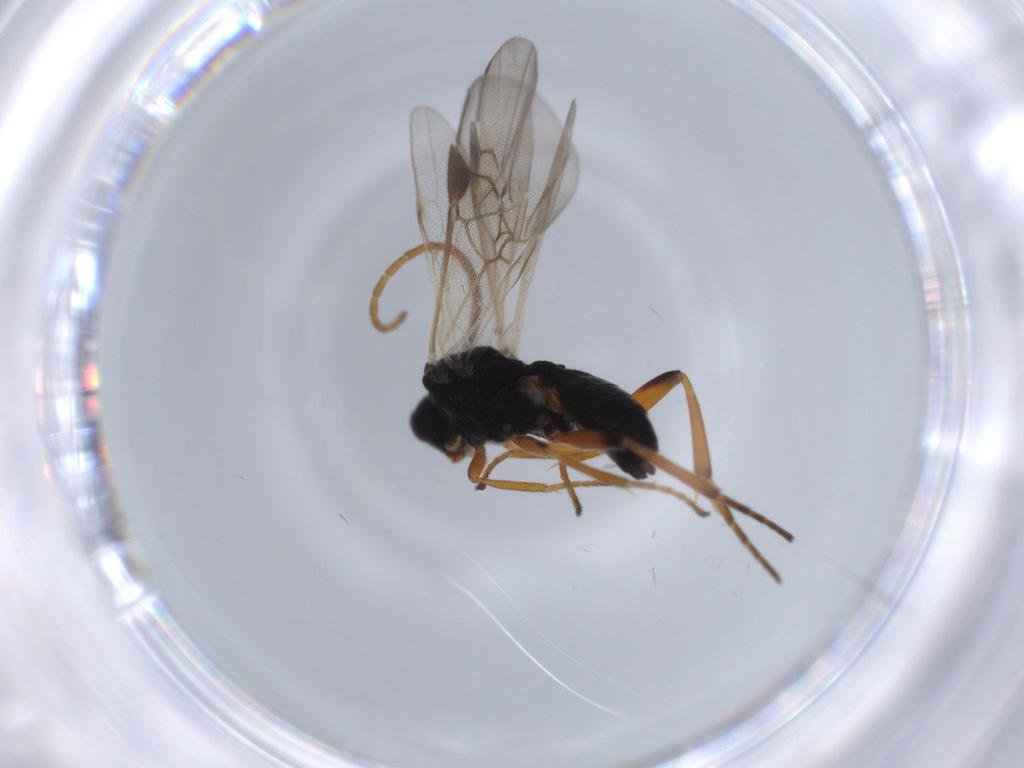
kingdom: Animalia
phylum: Arthropoda
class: Insecta
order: Hymenoptera
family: Braconidae
